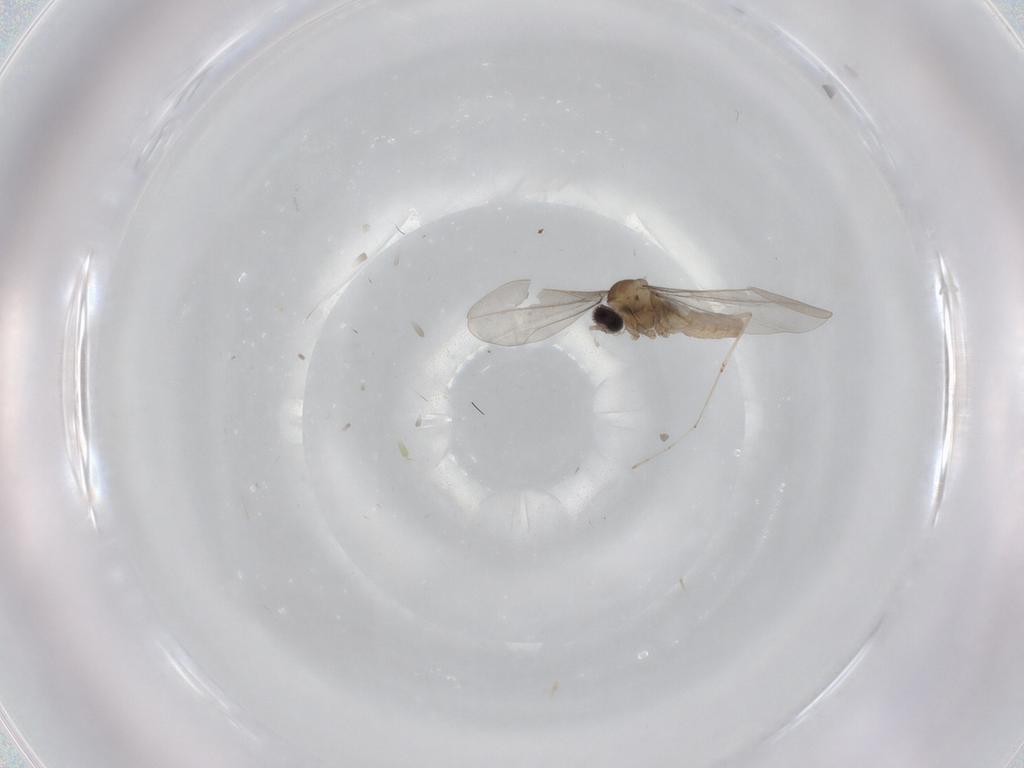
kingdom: Animalia
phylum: Arthropoda
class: Insecta
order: Diptera
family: Cecidomyiidae
